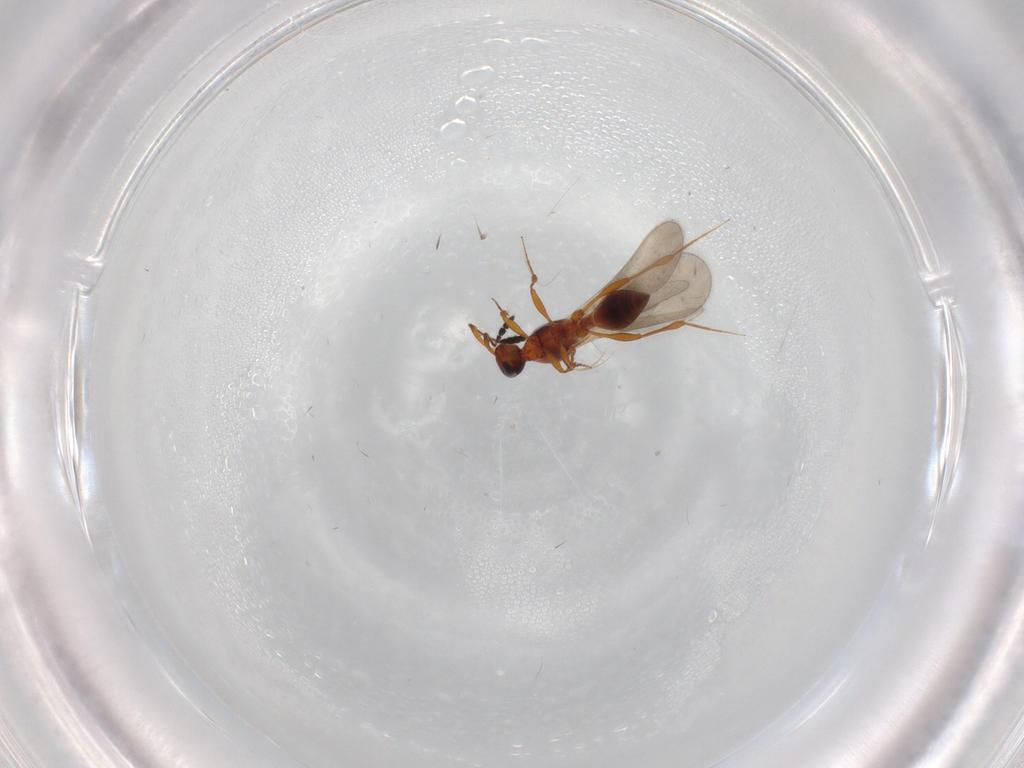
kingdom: Animalia
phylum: Arthropoda
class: Insecta
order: Hymenoptera
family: Platygastridae
